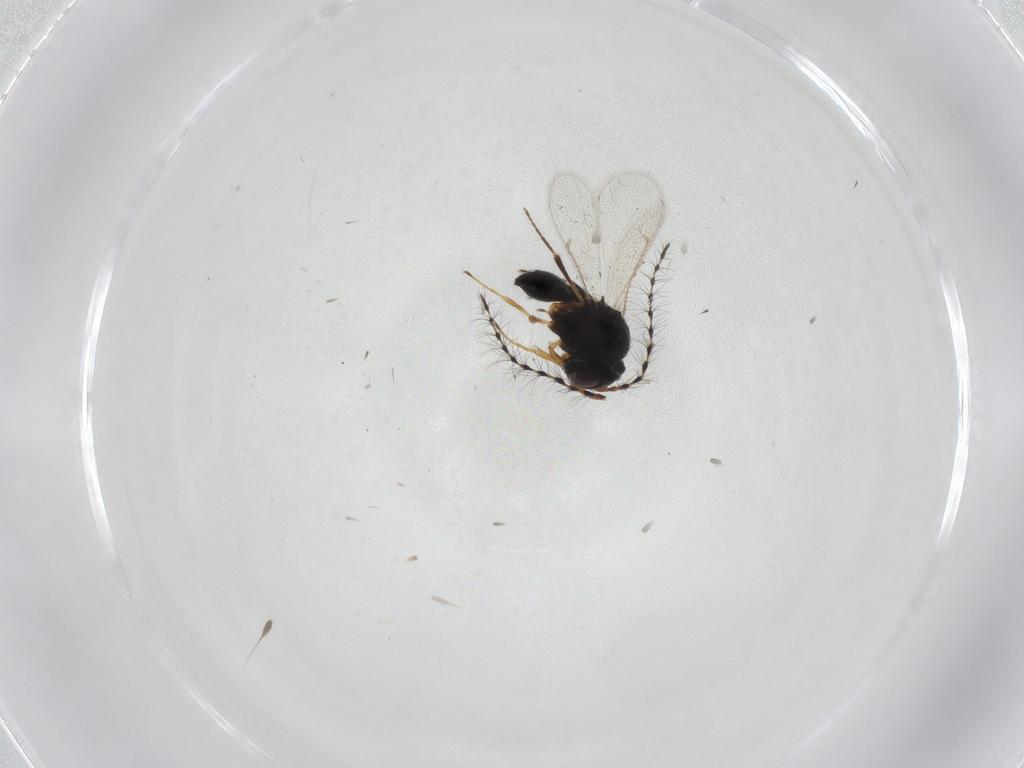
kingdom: Animalia
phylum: Arthropoda
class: Insecta
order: Hymenoptera
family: Scelionidae
